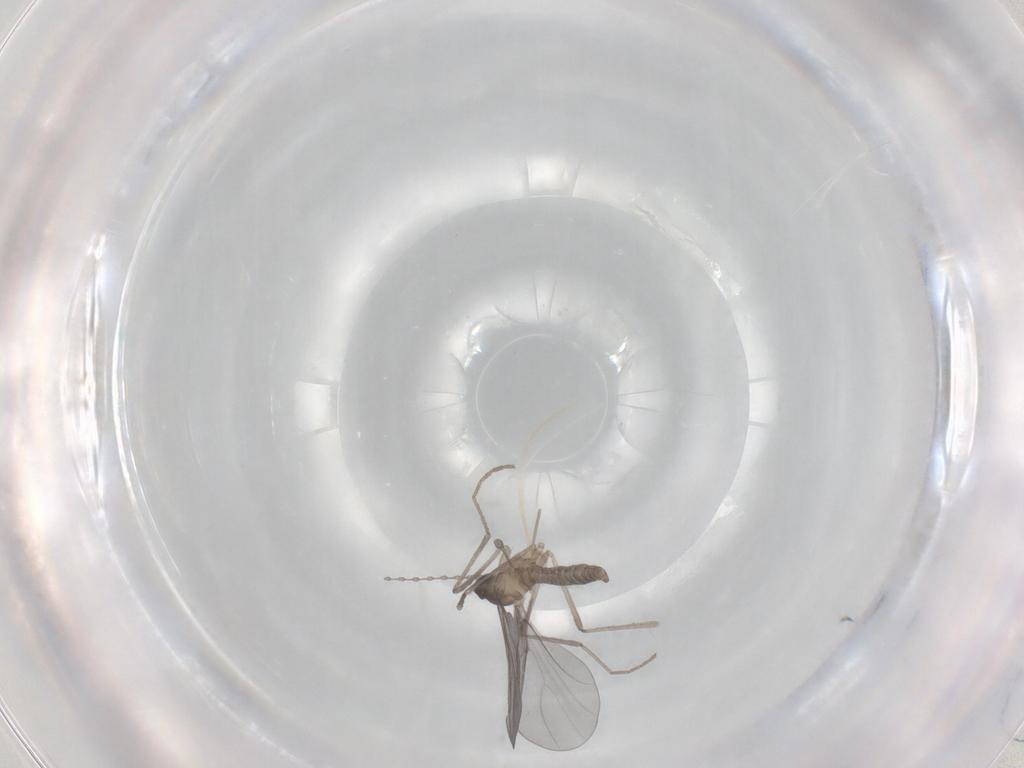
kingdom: Animalia
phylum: Arthropoda
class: Insecta
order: Diptera
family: Cecidomyiidae
